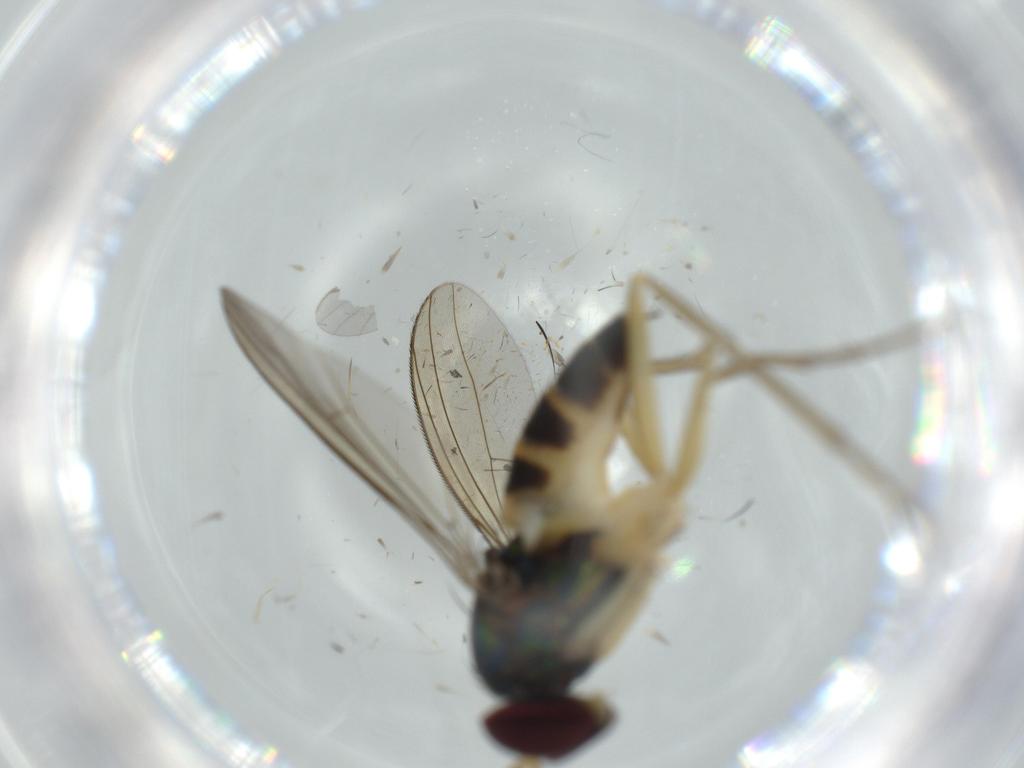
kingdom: Animalia
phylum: Arthropoda
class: Insecta
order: Diptera
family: Dolichopodidae
